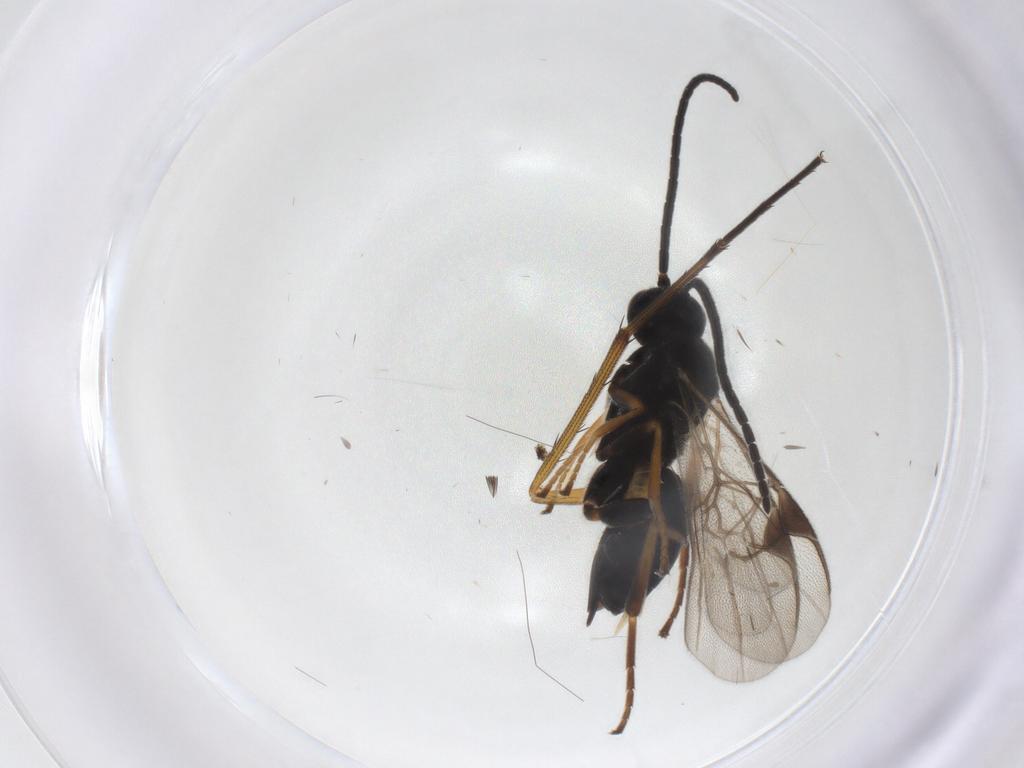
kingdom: Animalia
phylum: Arthropoda
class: Insecta
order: Hymenoptera
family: Braconidae
